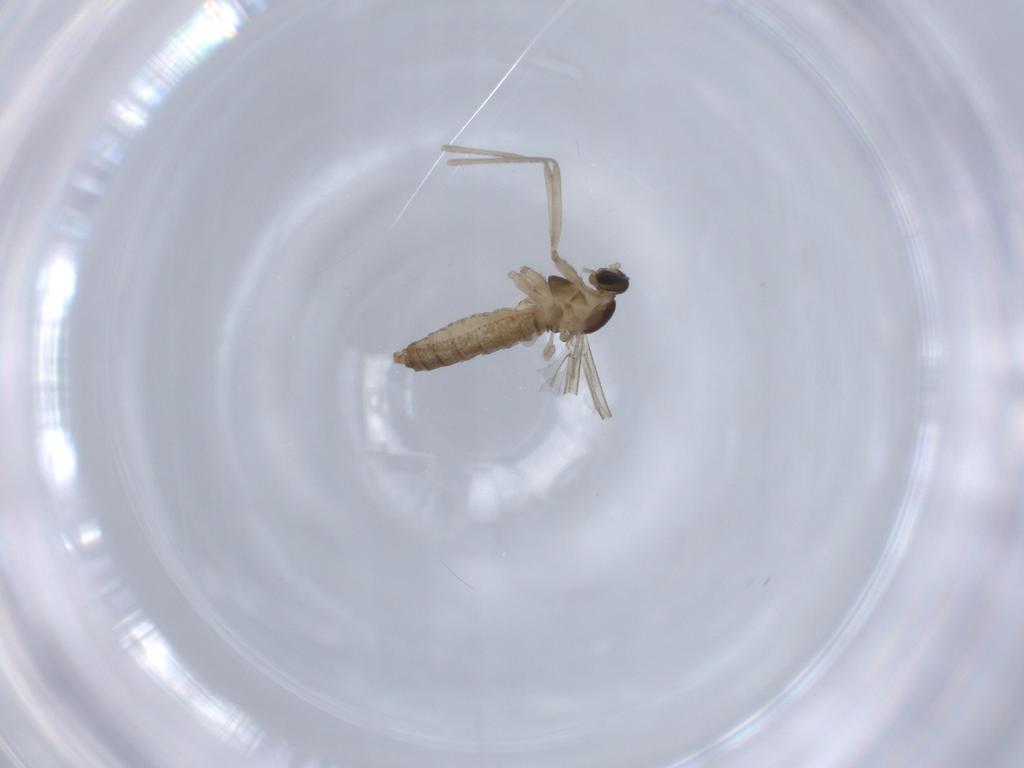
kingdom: Animalia
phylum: Arthropoda
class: Insecta
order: Diptera
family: Cecidomyiidae
